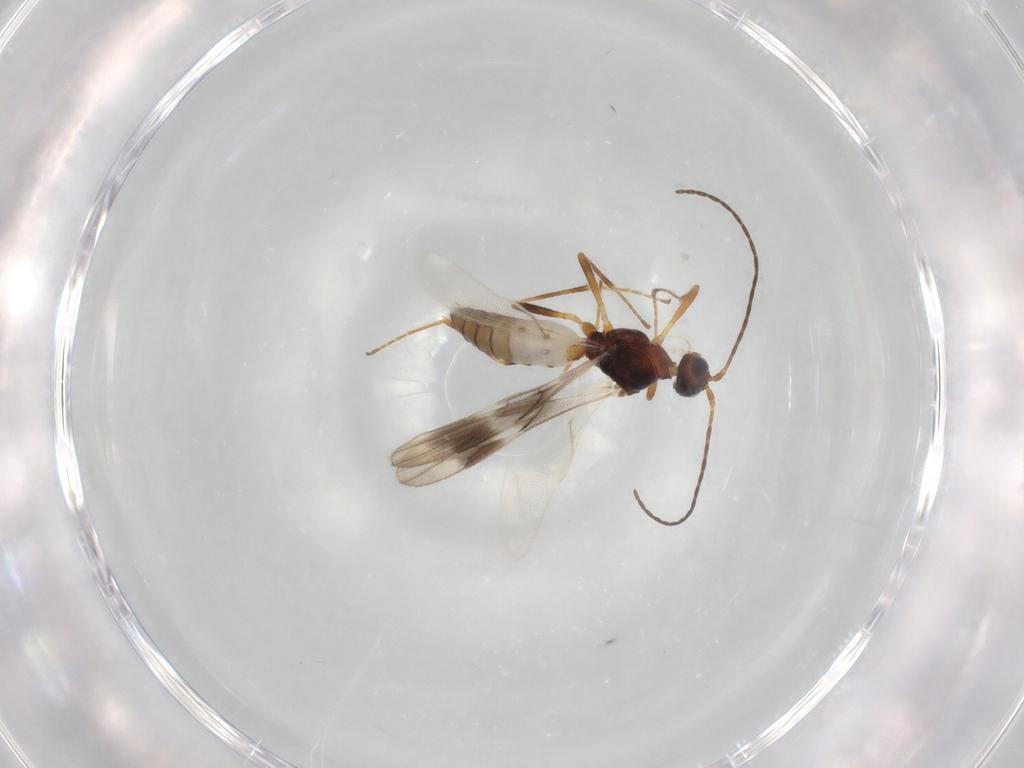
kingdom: Animalia
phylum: Arthropoda
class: Insecta
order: Hymenoptera
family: Braconidae
